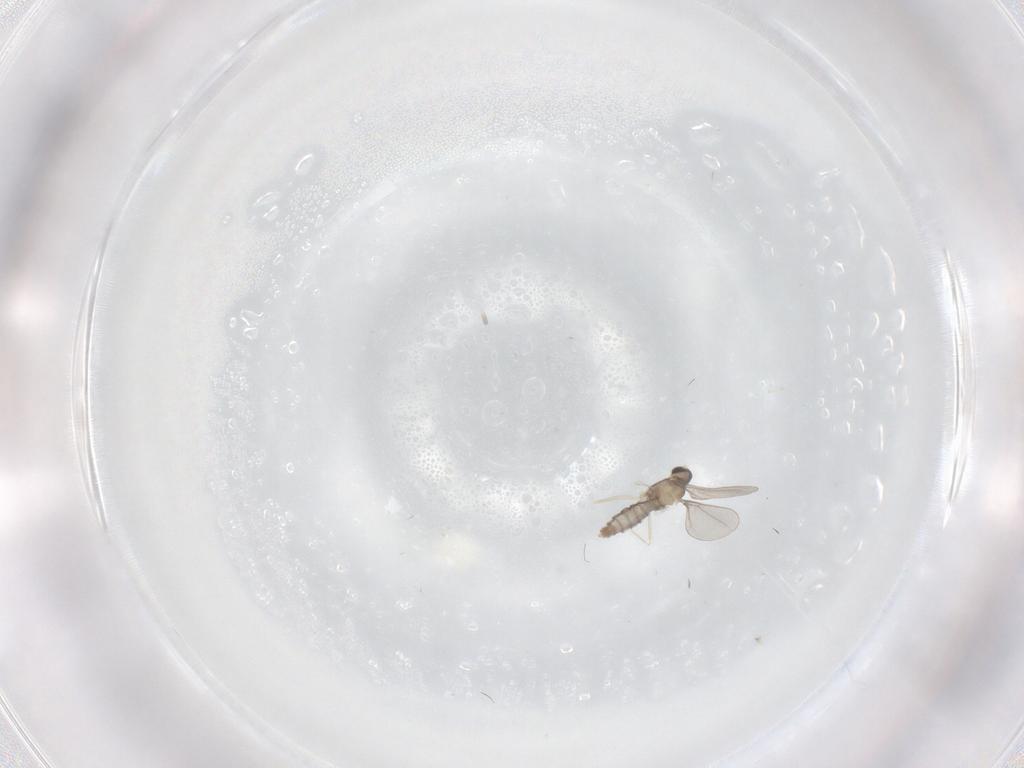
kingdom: Animalia
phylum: Arthropoda
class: Insecta
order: Diptera
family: Cecidomyiidae
